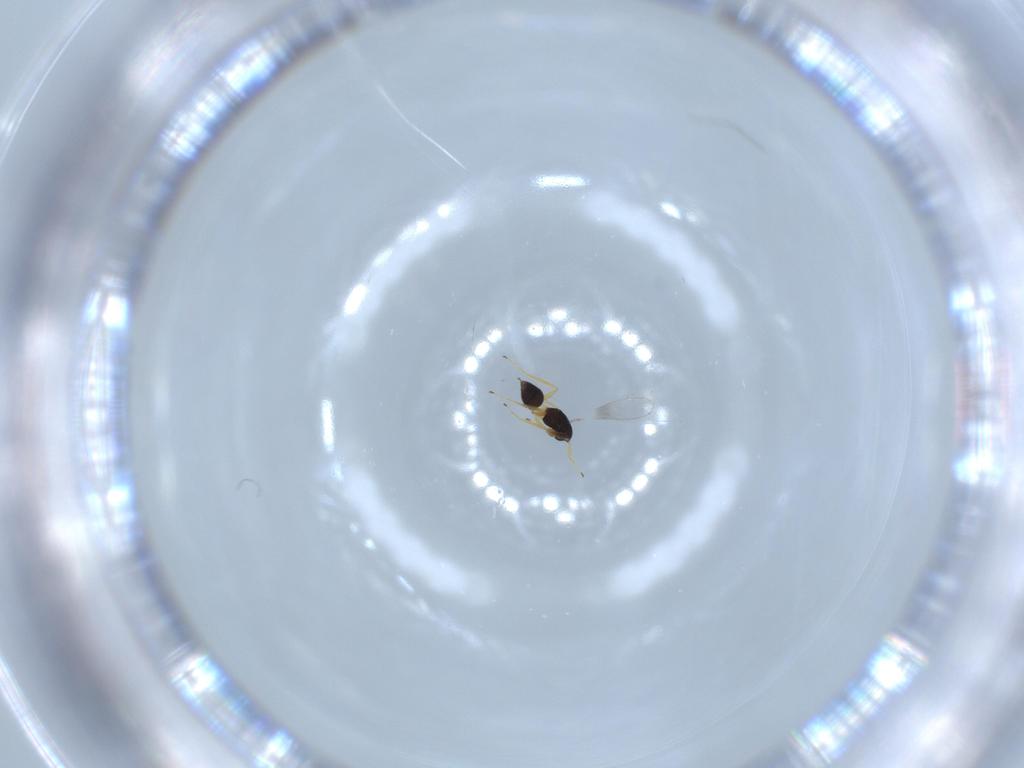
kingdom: Animalia
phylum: Arthropoda
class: Insecta
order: Hymenoptera
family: Mymaridae
